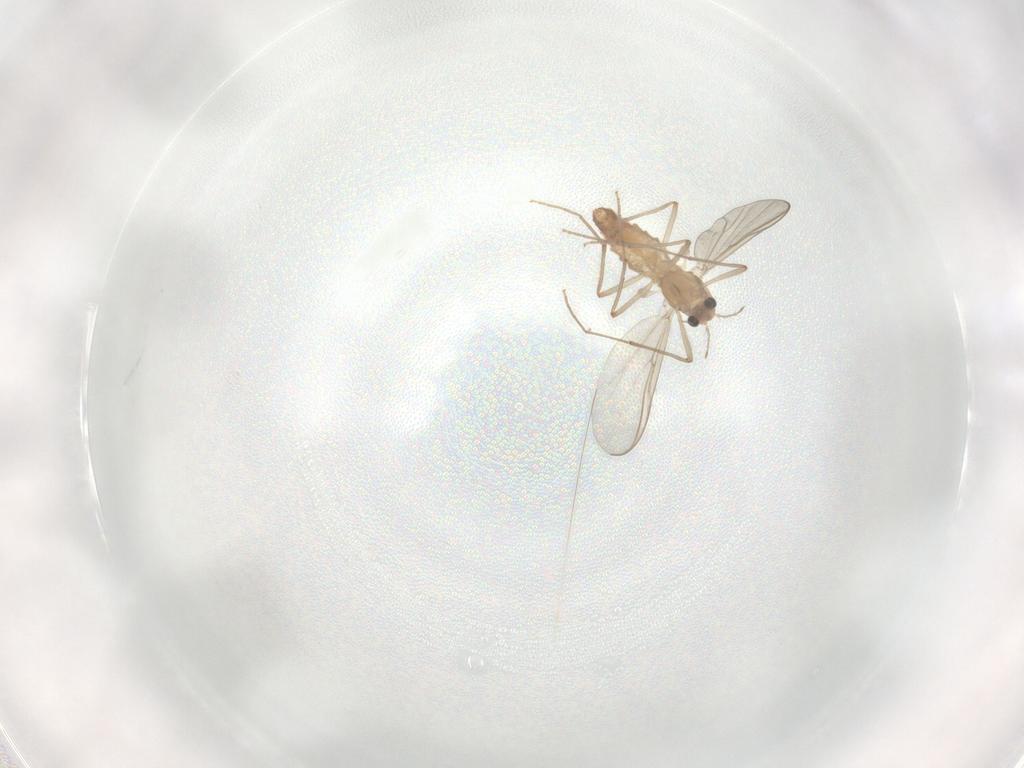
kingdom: Animalia
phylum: Arthropoda
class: Insecta
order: Diptera
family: Chironomidae
